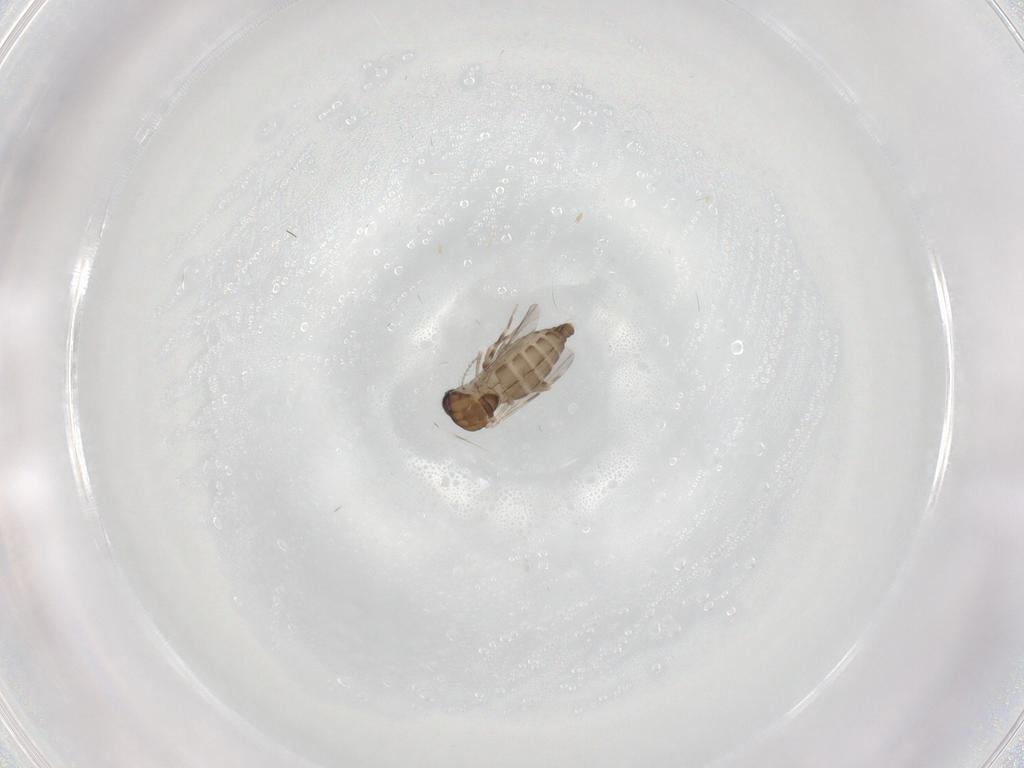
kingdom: Animalia
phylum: Arthropoda
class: Insecta
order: Diptera
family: Ceratopogonidae
